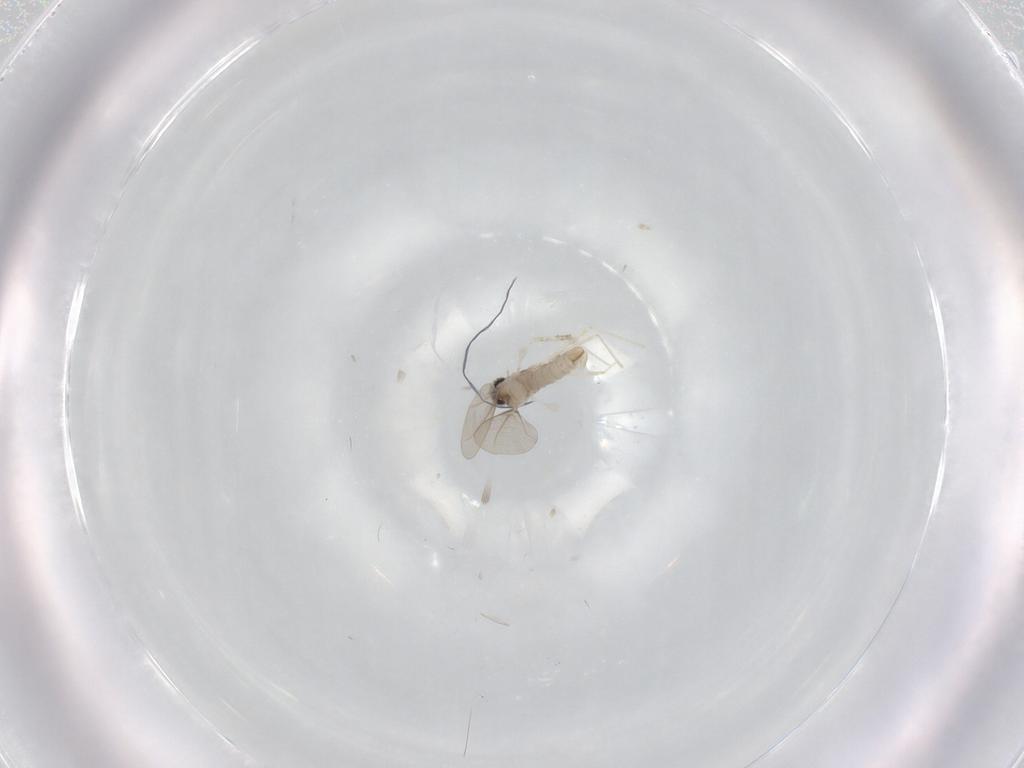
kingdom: Animalia
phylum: Arthropoda
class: Insecta
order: Diptera
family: Cecidomyiidae
